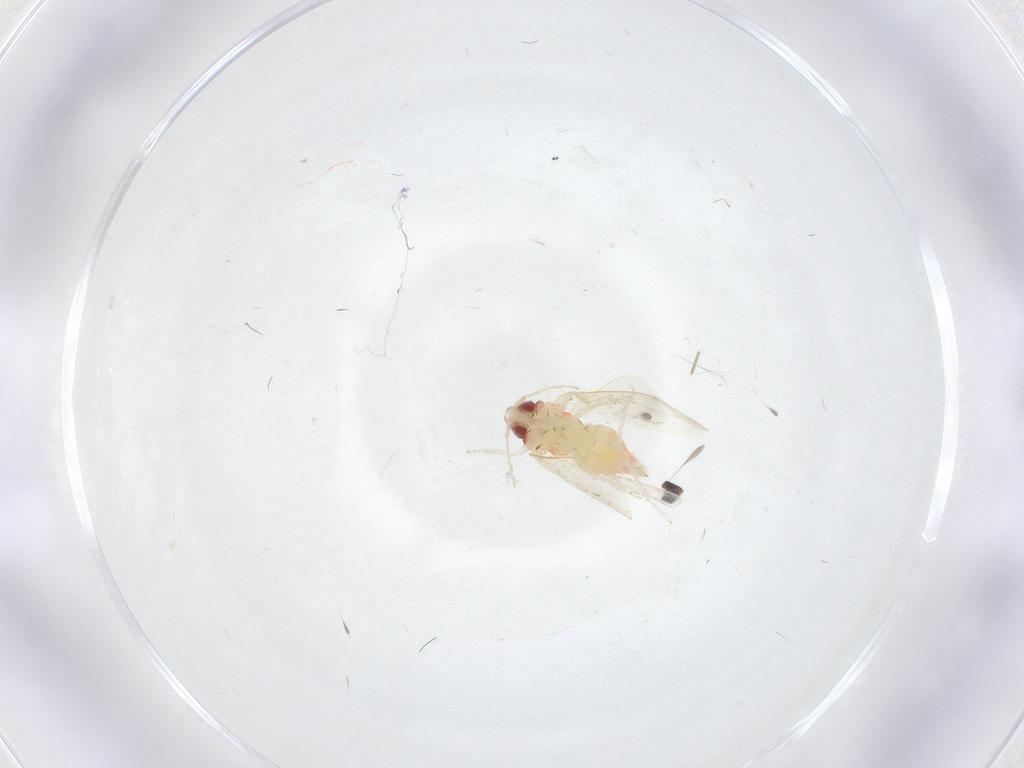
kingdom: Animalia
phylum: Arthropoda
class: Insecta
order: Hemiptera
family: Aleyrodidae
